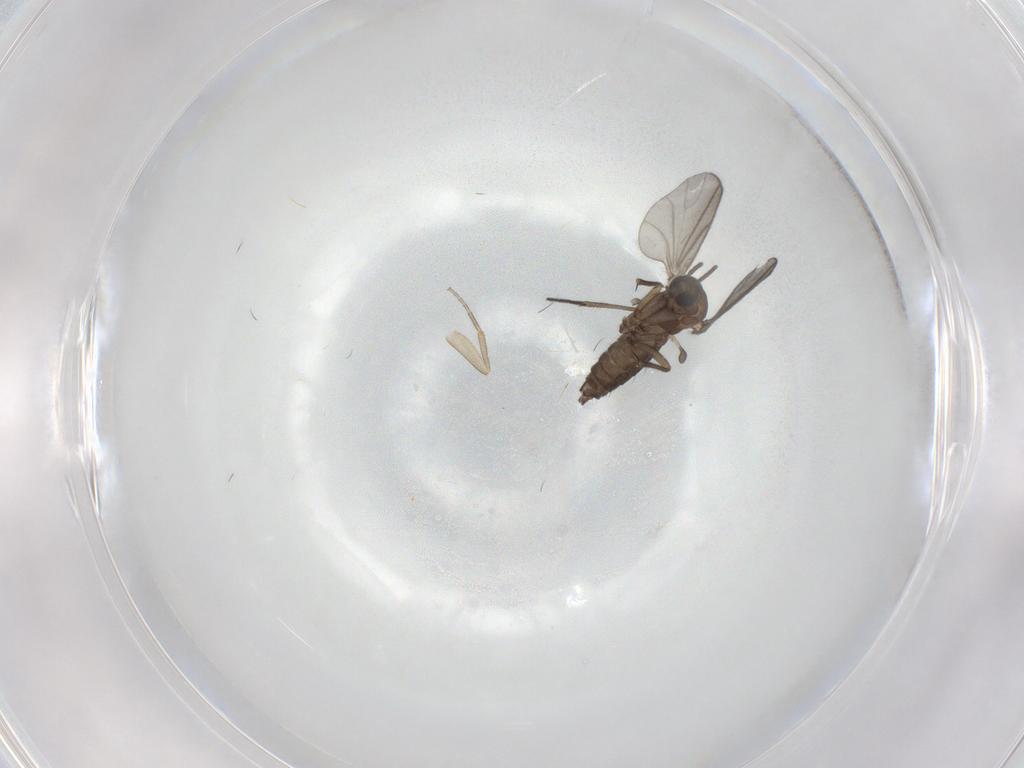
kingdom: Animalia
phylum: Arthropoda
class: Insecta
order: Diptera
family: Sciaridae
